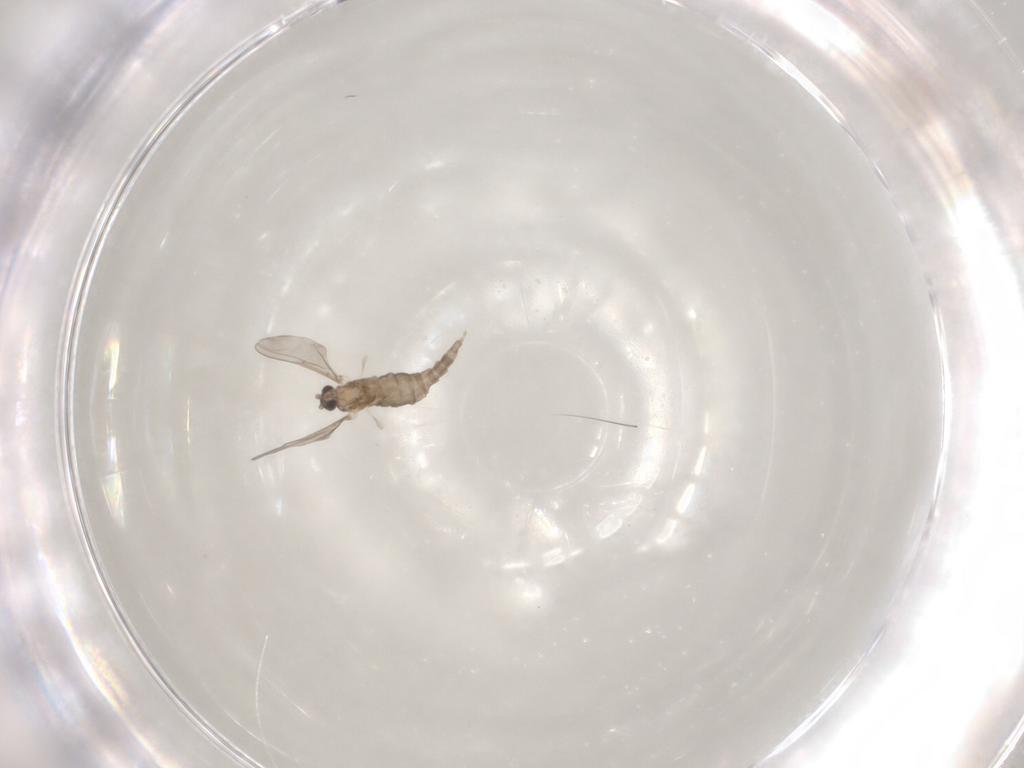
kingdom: Animalia
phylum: Arthropoda
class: Insecta
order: Diptera
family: Cecidomyiidae
